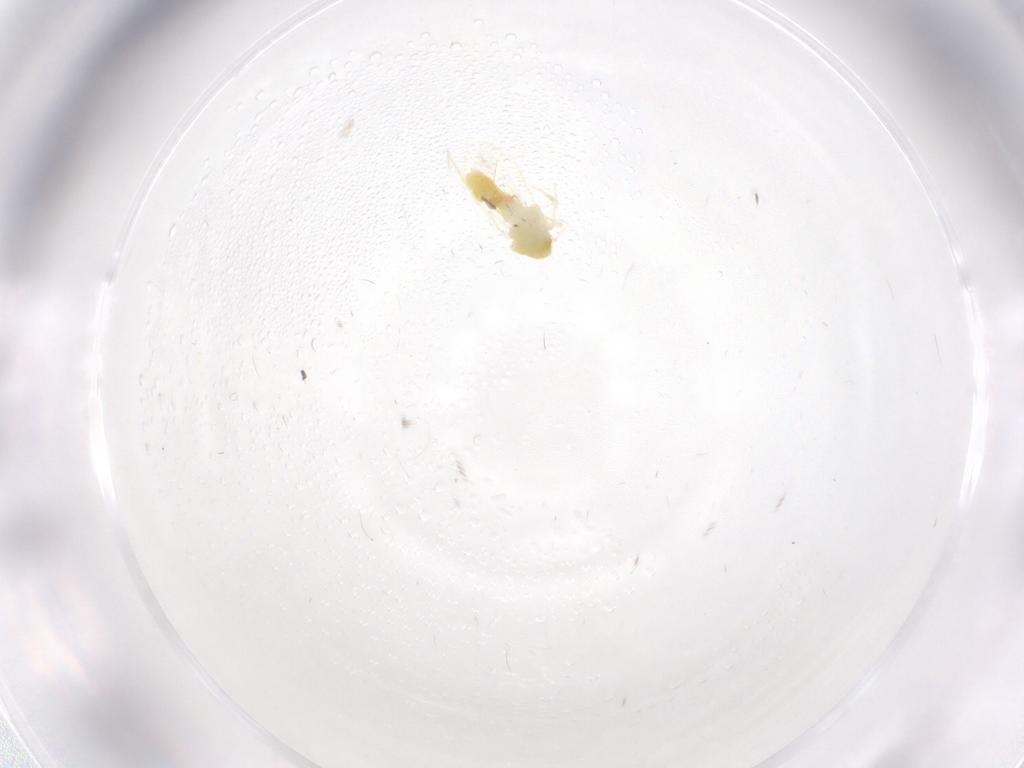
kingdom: Animalia
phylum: Arthropoda
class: Insecta
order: Hemiptera
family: Aleyrodidae
